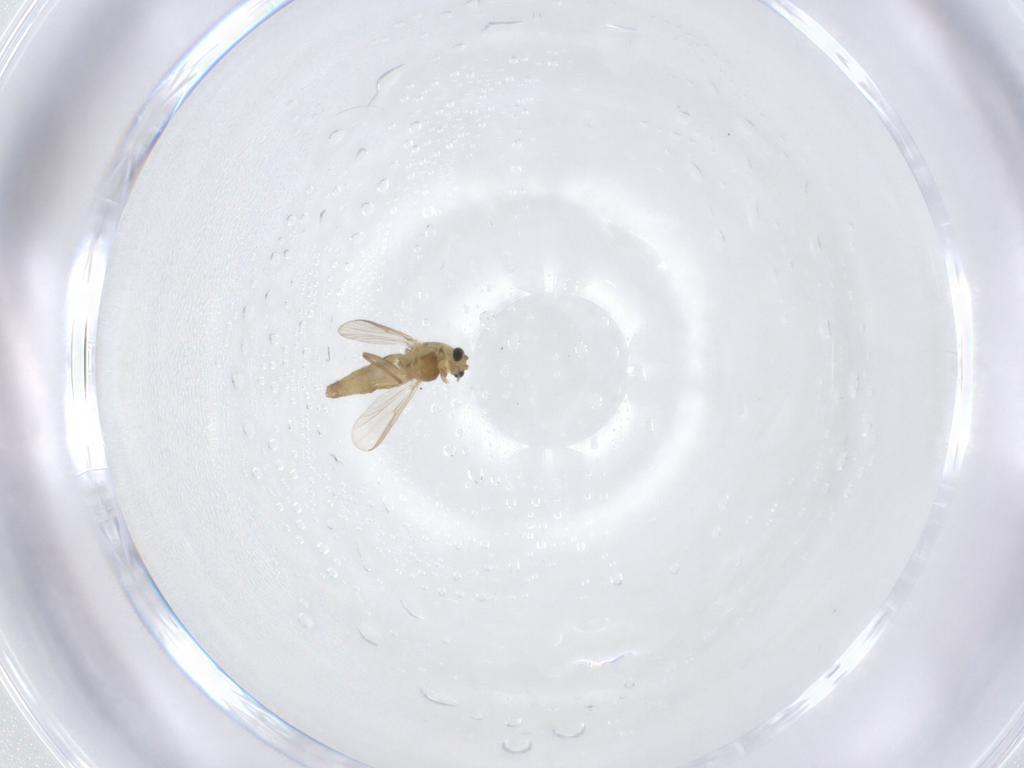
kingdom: Animalia
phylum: Arthropoda
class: Insecta
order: Diptera
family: Chironomidae
